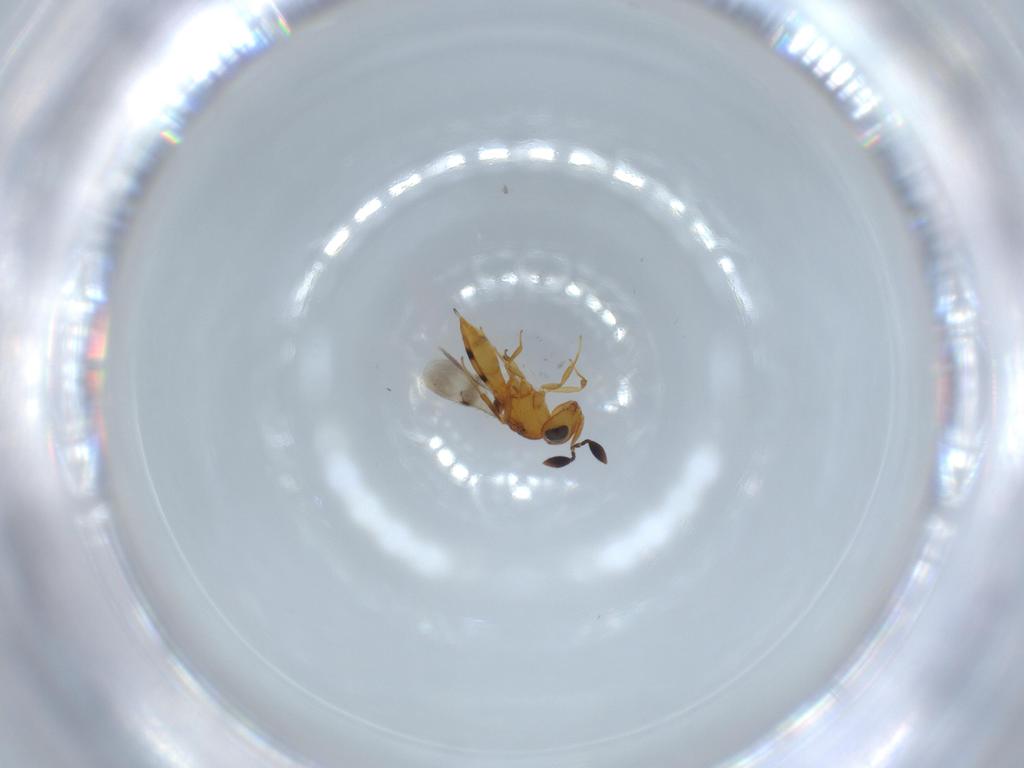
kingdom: Animalia
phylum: Arthropoda
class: Insecta
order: Hymenoptera
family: Scelionidae
